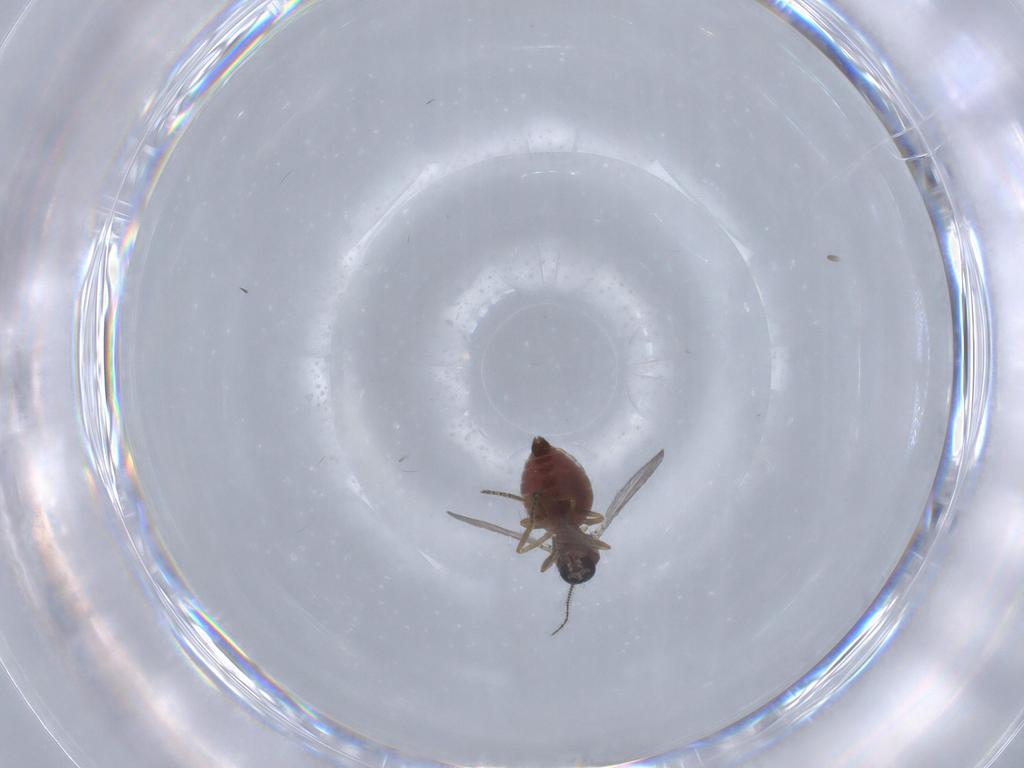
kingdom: Animalia
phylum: Arthropoda
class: Insecta
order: Diptera
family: Ceratopogonidae
